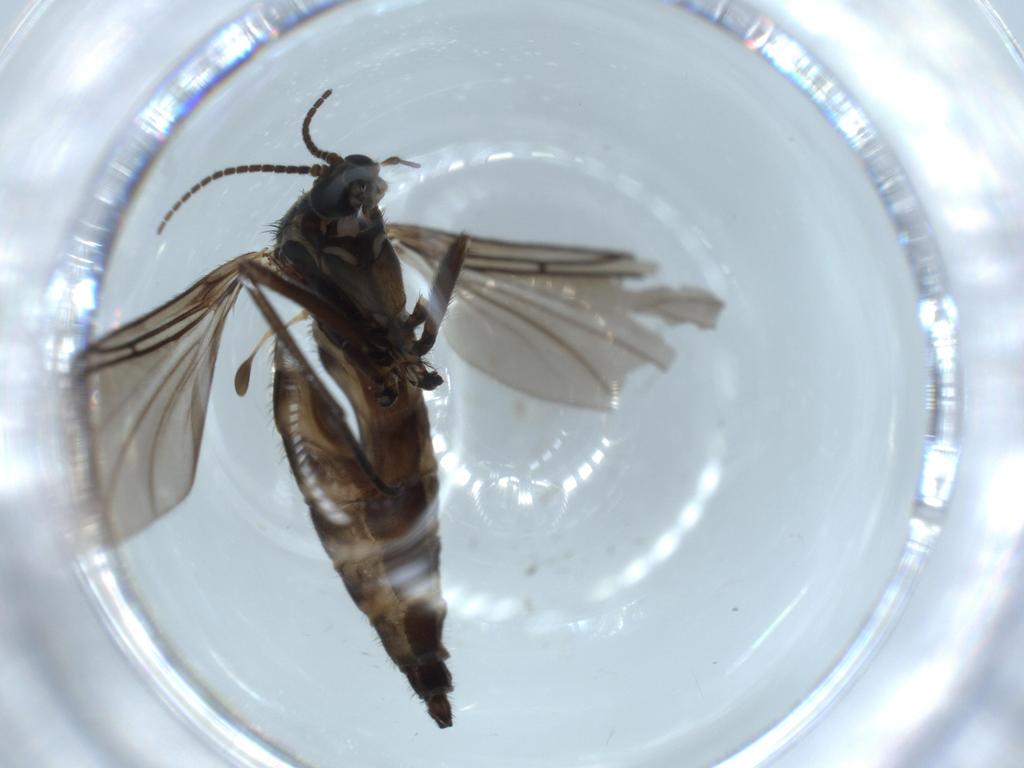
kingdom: Animalia
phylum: Arthropoda
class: Insecta
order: Diptera
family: Sciaridae
